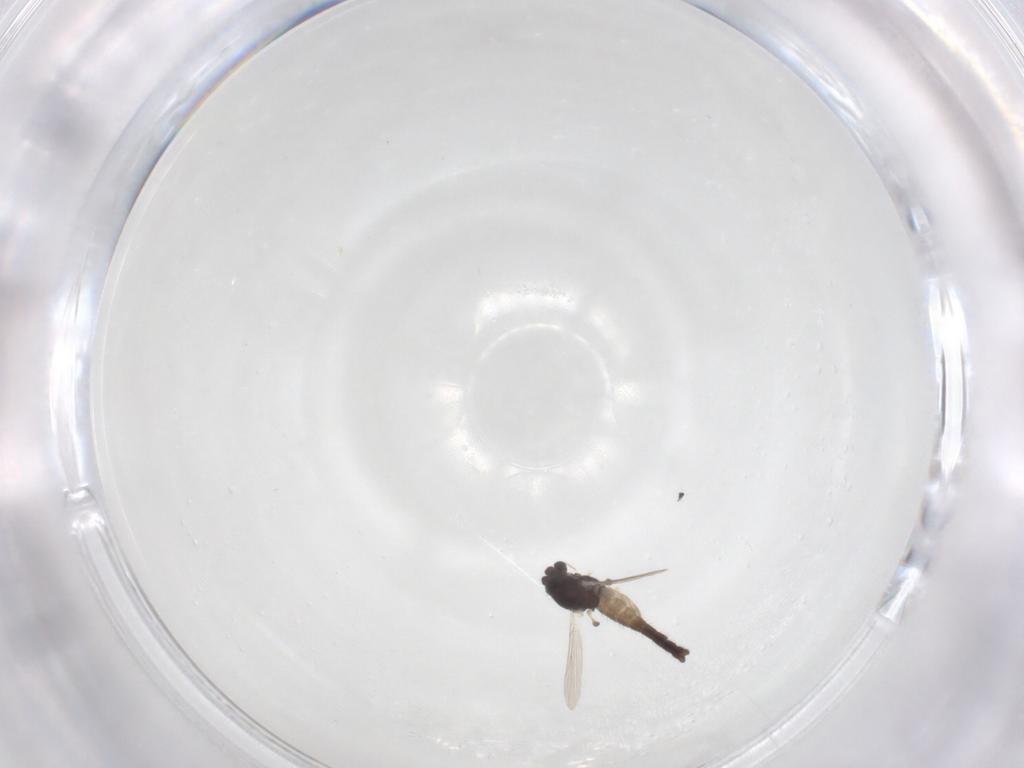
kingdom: Animalia
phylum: Arthropoda
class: Insecta
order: Diptera
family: Chironomidae
